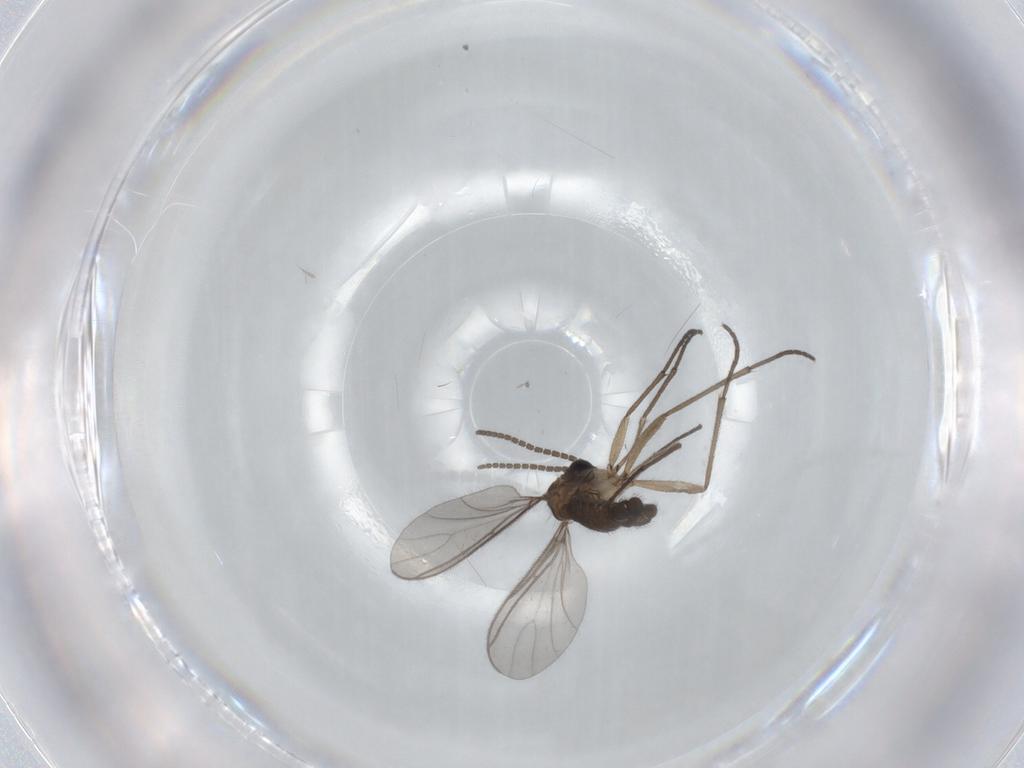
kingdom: Animalia
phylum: Arthropoda
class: Insecta
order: Diptera
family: Sciaridae
